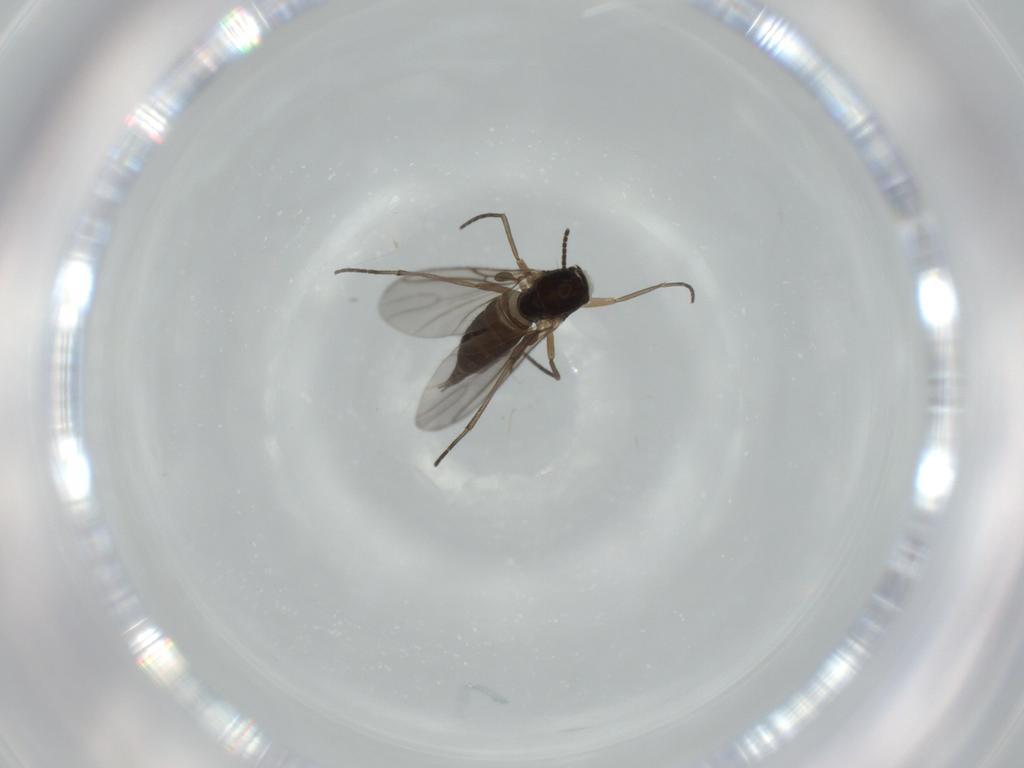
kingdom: Animalia
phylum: Arthropoda
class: Insecta
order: Diptera
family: Sciaridae
